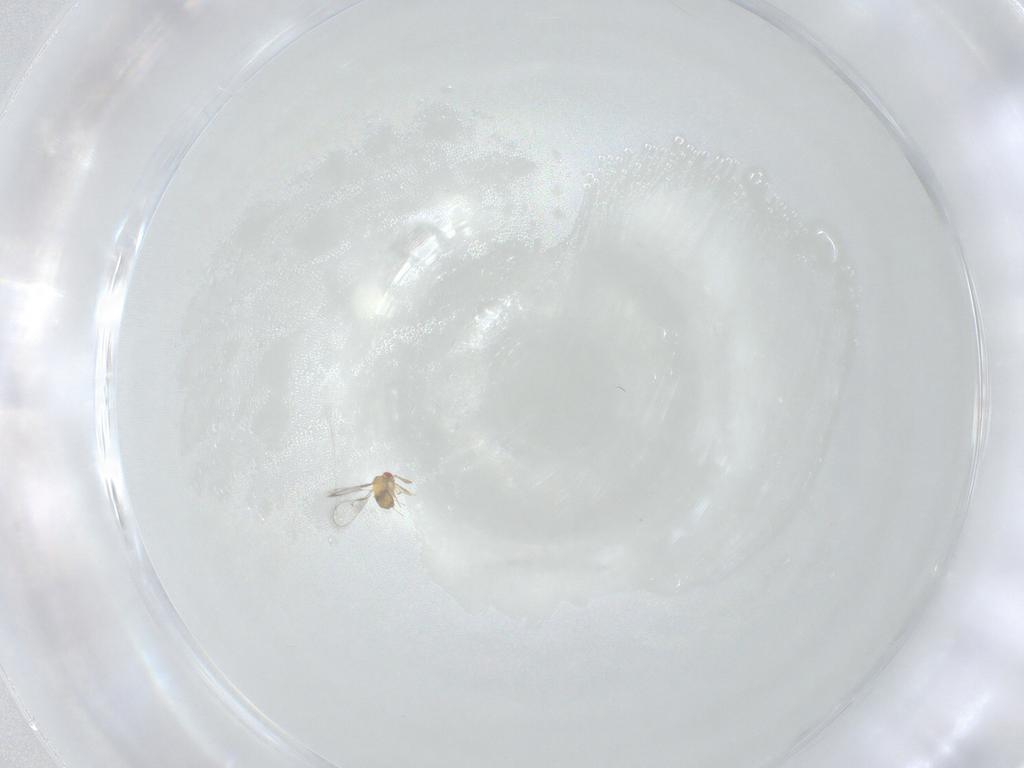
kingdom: Animalia
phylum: Arthropoda
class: Insecta
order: Hymenoptera
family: Trichogrammatidae
